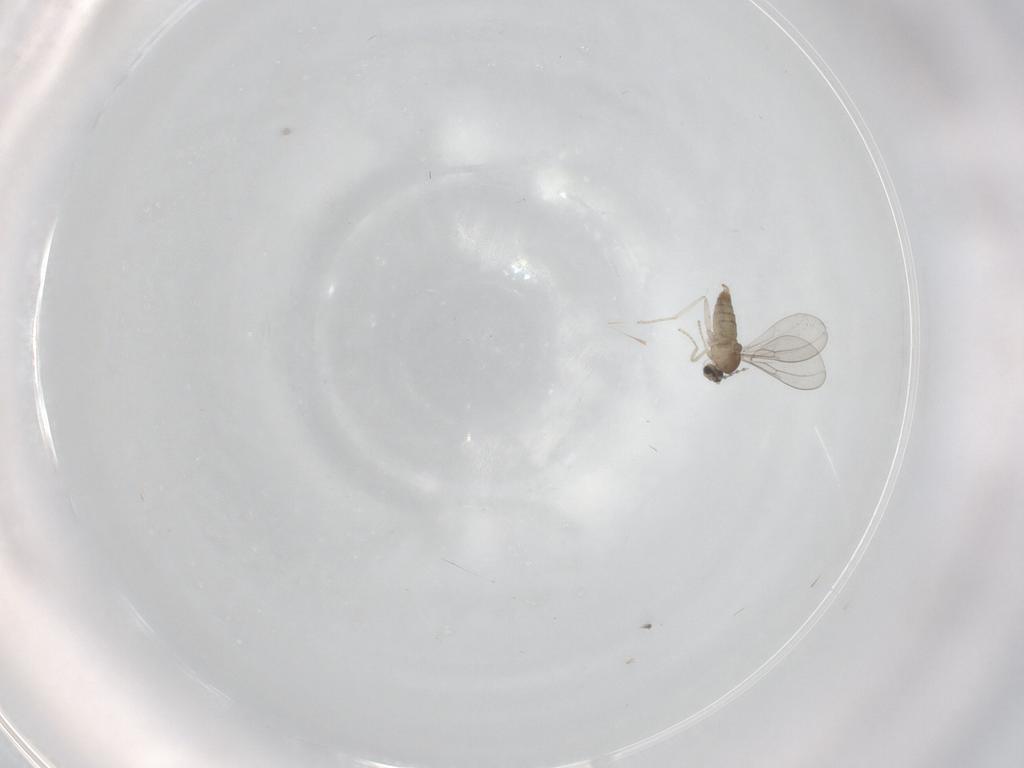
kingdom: Animalia
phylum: Arthropoda
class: Insecta
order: Diptera
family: Cecidomyiidae
